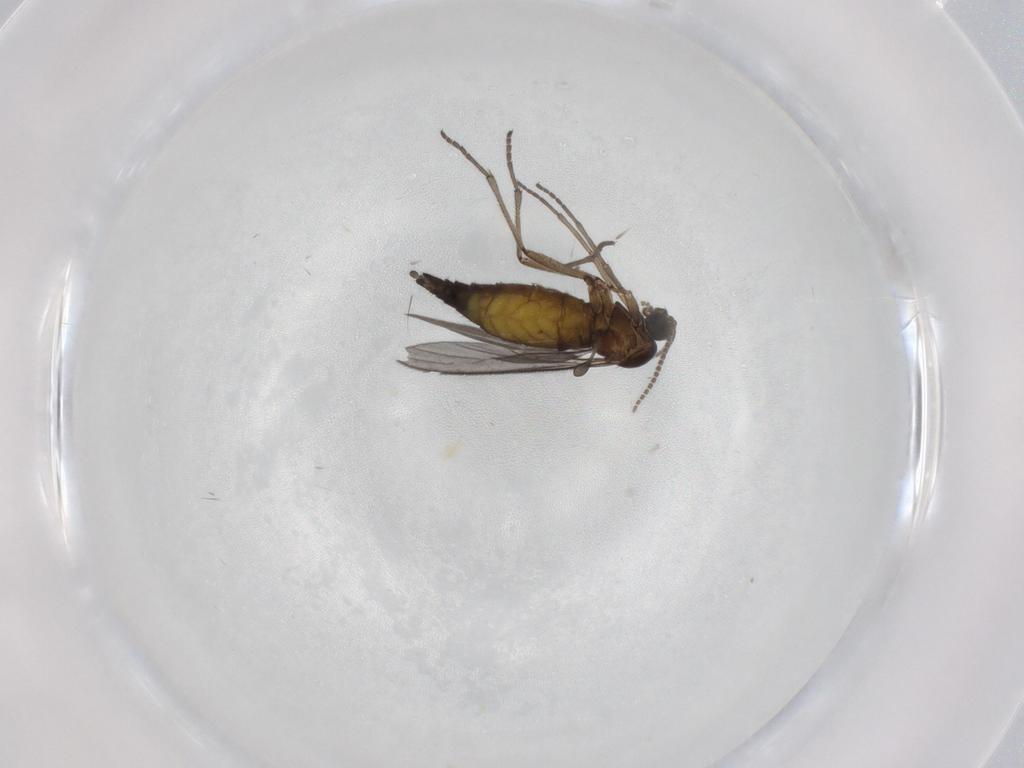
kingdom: Animalia
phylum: Arthropoda
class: Insecta
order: Diptera
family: Sciaridae
